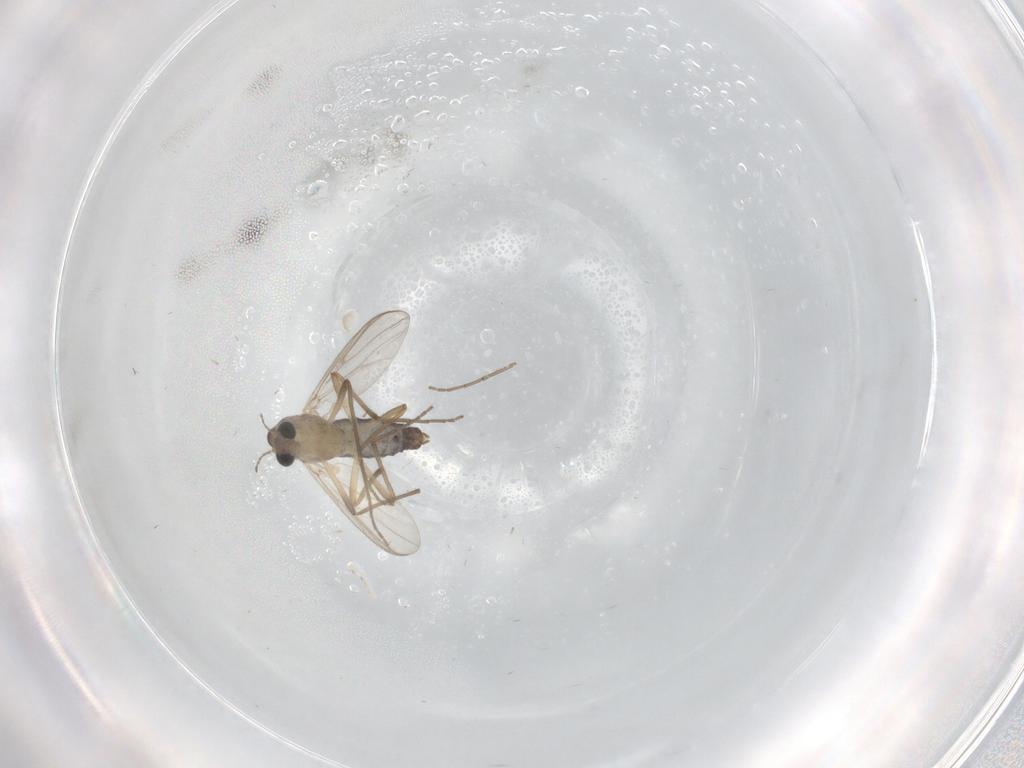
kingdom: Animalia
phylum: Arthropoda
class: Insecta
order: Diptera
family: Chironomidae
